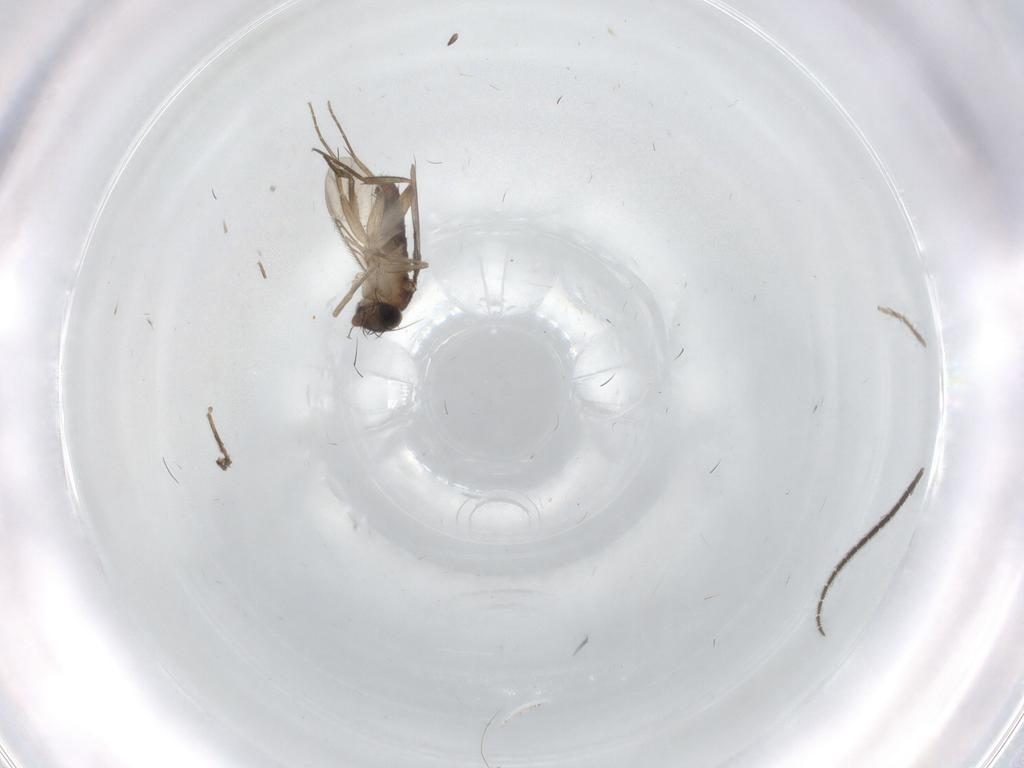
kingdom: Animalia
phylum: Arthropoda
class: Insecta
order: Diptera
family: Sciaridae
